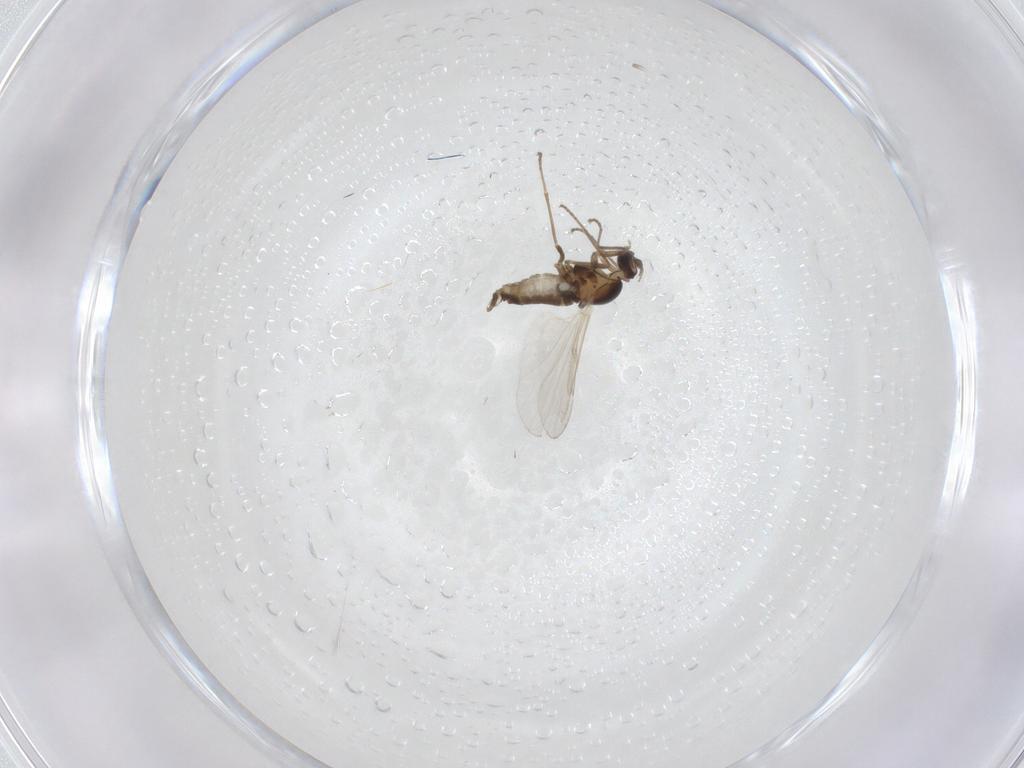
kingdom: Animalia
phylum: Arthropoda
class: Insecta
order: Diptera
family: Cecidomyiidae
